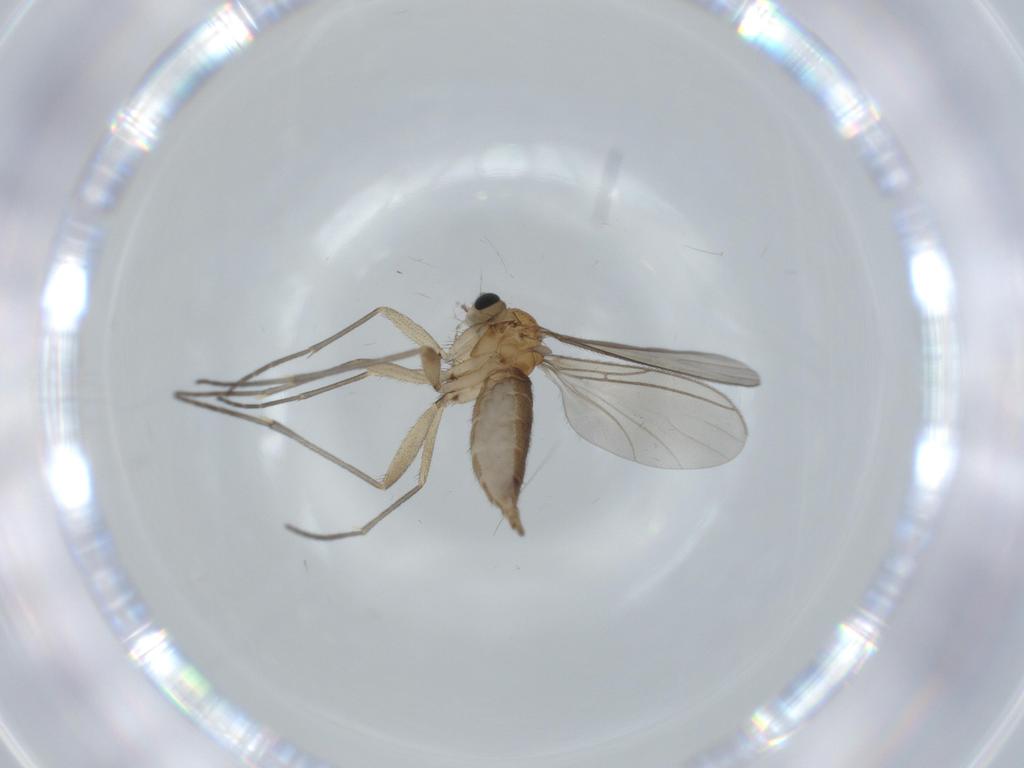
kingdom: Animalia
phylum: Arthropoda
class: Insecta
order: Diptera
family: Sciaridae
